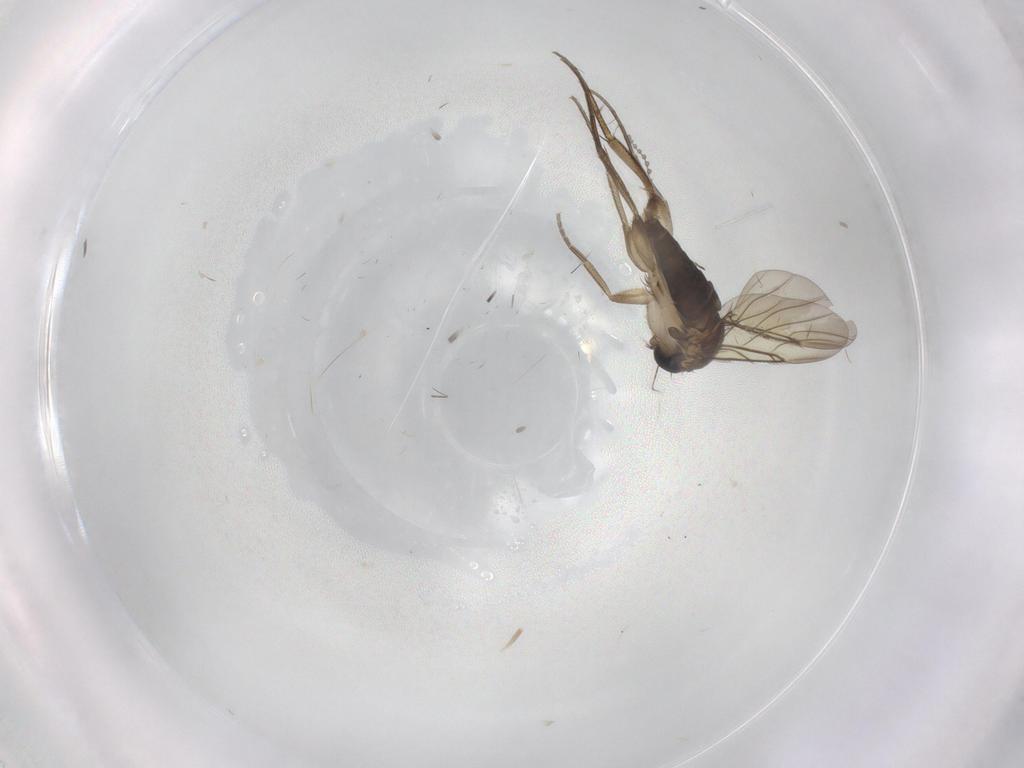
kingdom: Animalia
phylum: Arthropoda
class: Insecta
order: Diptera
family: Phoridae
